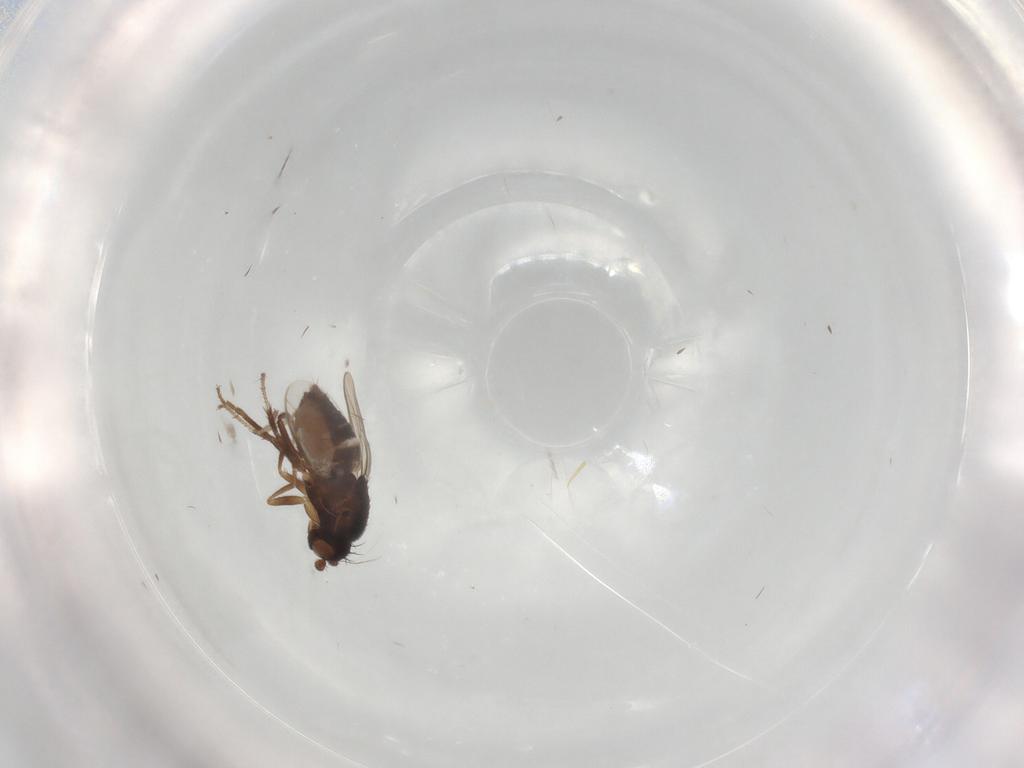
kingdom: Animalia
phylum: Arthropoda
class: Insecta
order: Diptera
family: Sphaeroceridae
